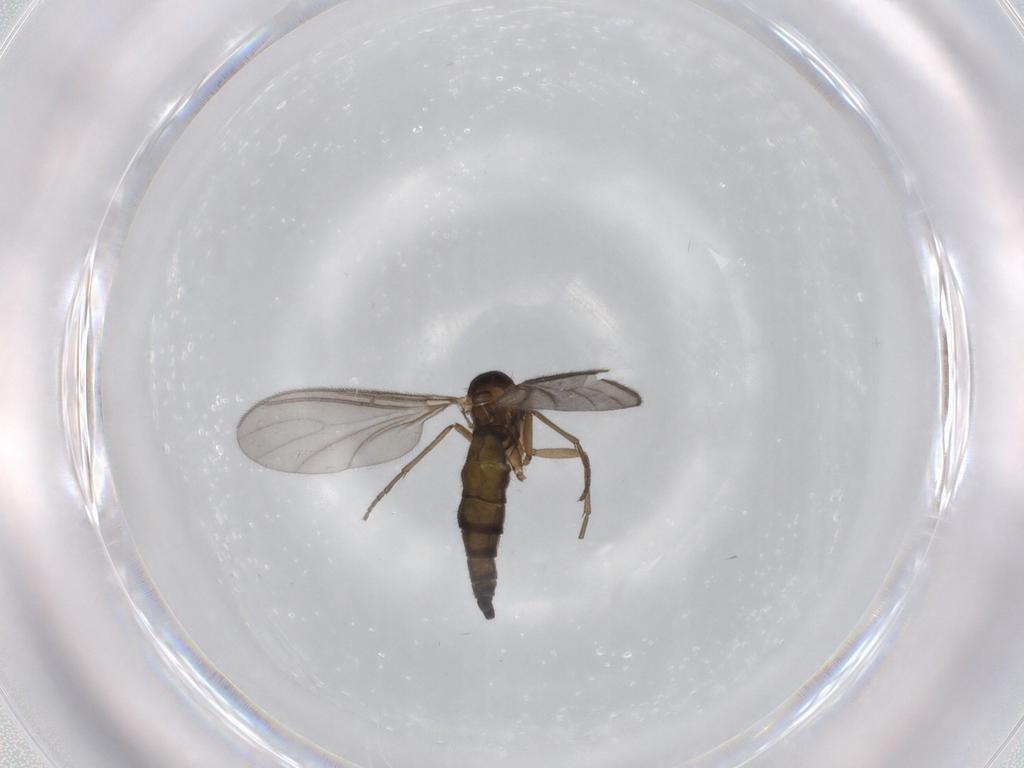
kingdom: Animalia
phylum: Arthropoda
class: Insecta
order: Diptera
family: Sciaridae
